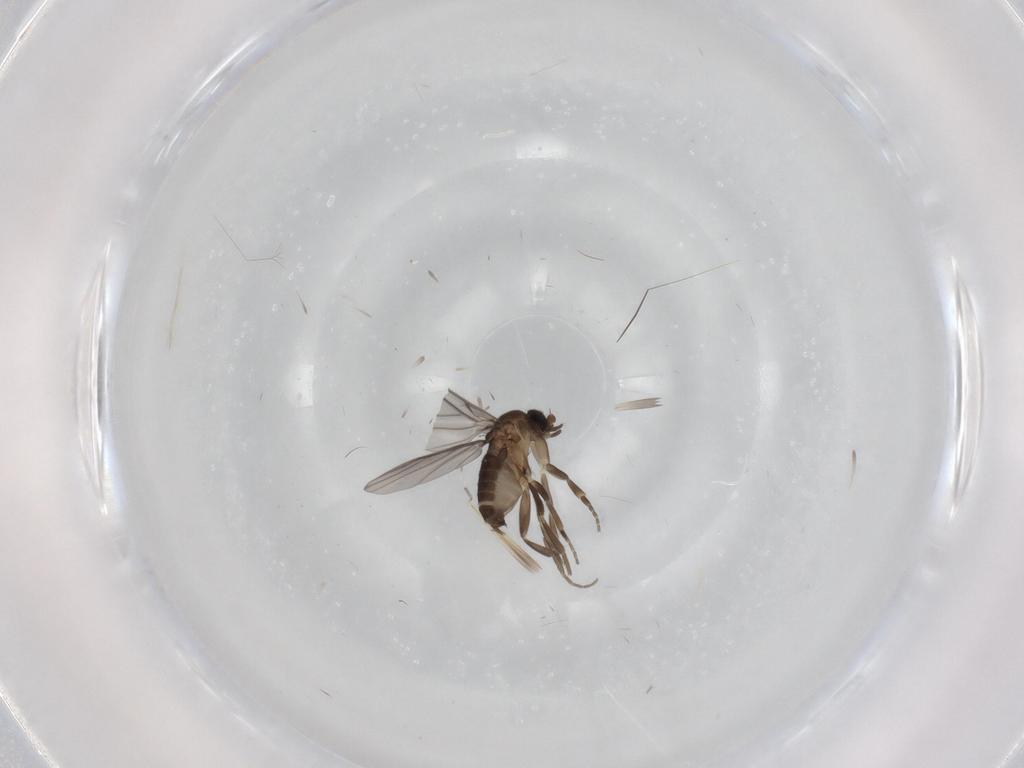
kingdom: Animalia
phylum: Arthropoda
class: Insecta
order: Diptera
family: Phoridae
